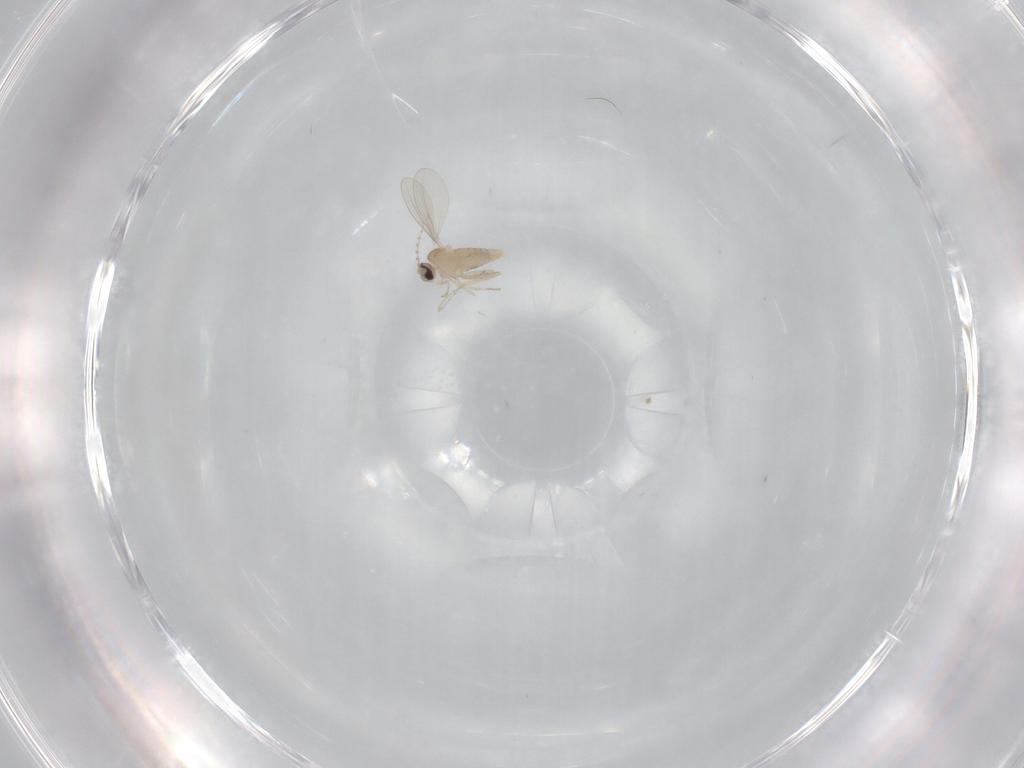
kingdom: Animalia
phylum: Arthropoda
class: Insecta
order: Diptera
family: Cecidomyiidae
